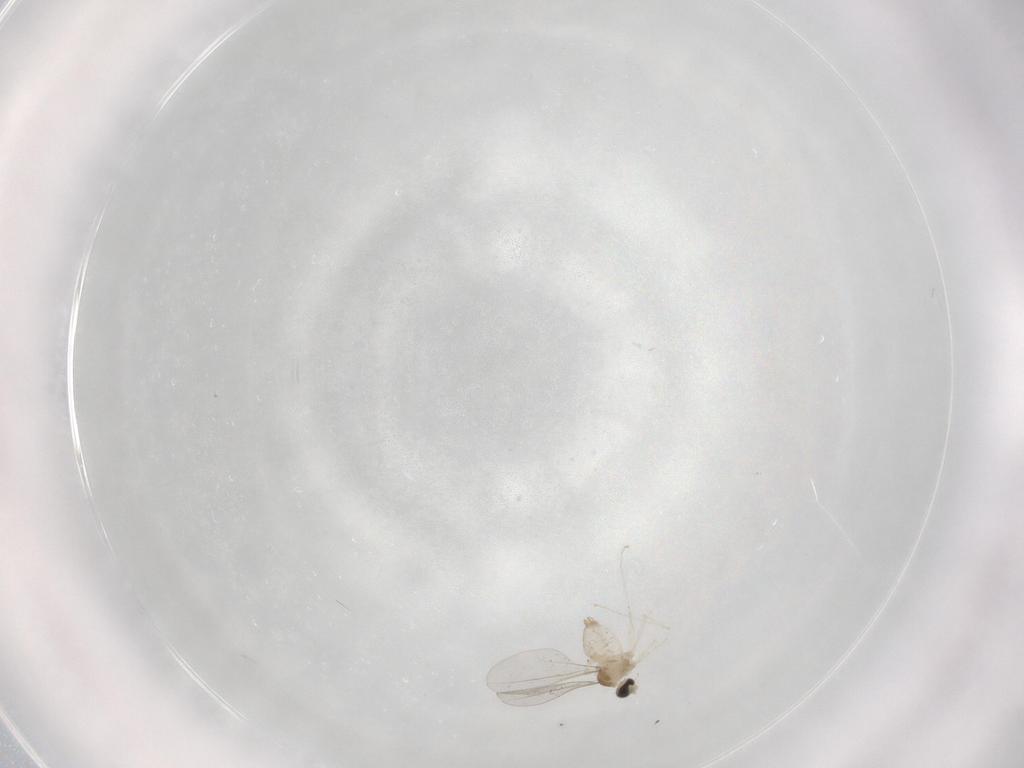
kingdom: Animalia
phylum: Arthropoda
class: Insecta
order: Diptera
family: Cecidomyiidae
